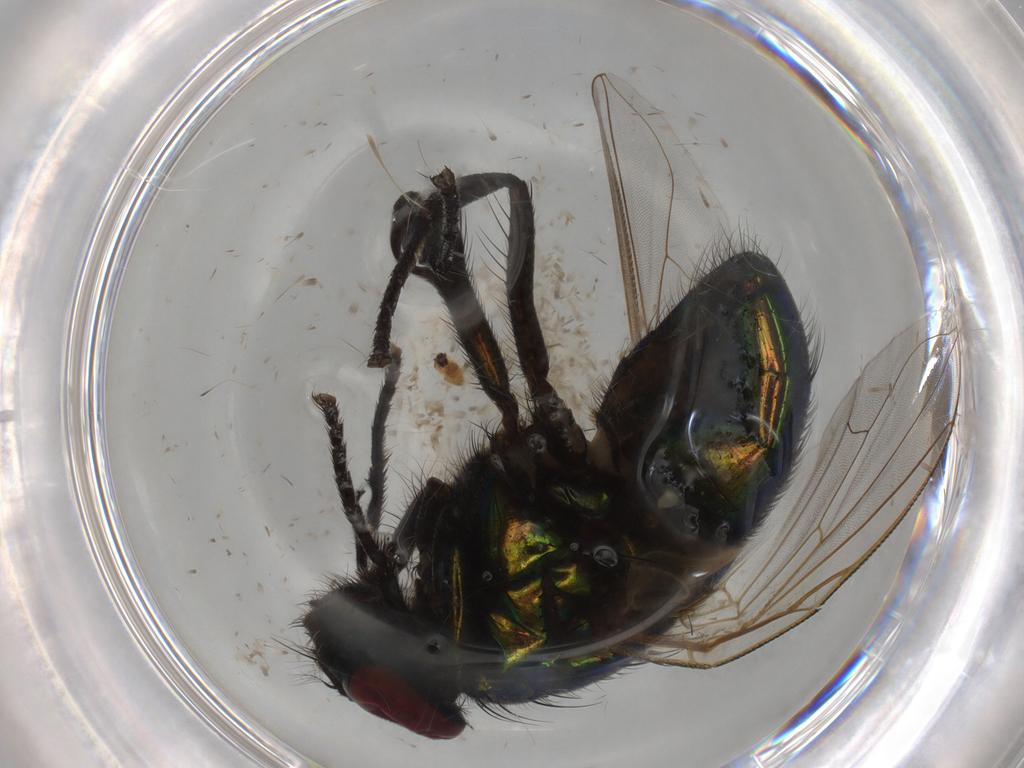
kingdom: Animalia
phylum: Arthropoda
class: Insecta
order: Diptera
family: Muscidae
